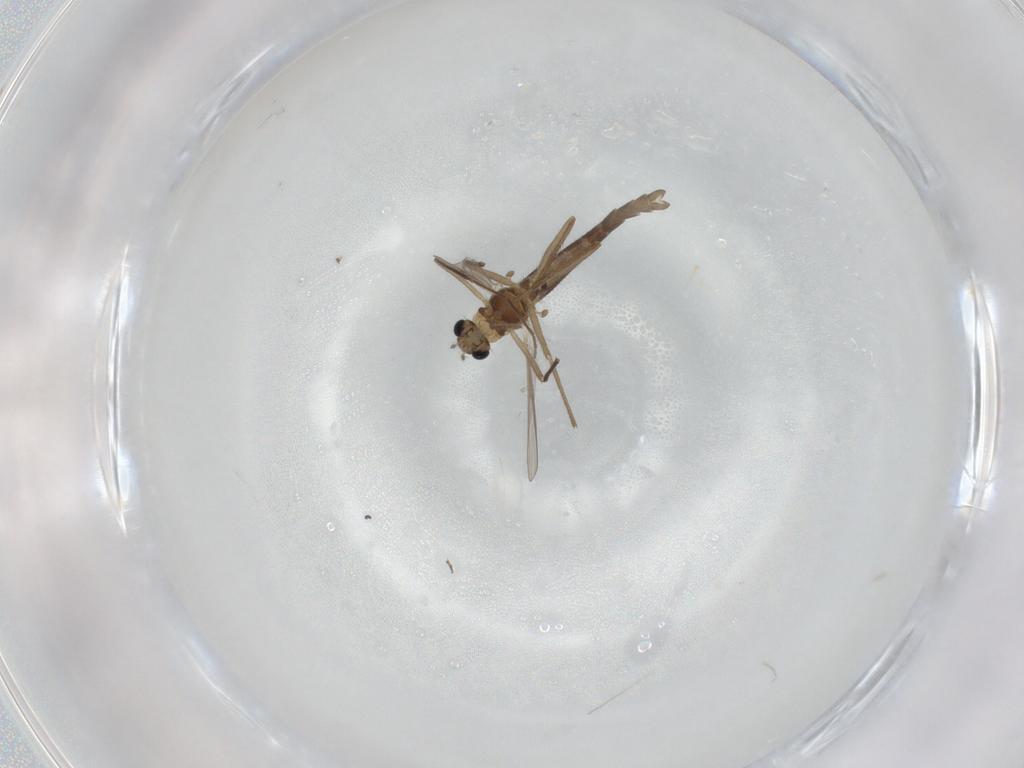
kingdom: Animalia
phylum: Arthropoda
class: Insecta
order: Diptera
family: Chironomidae
